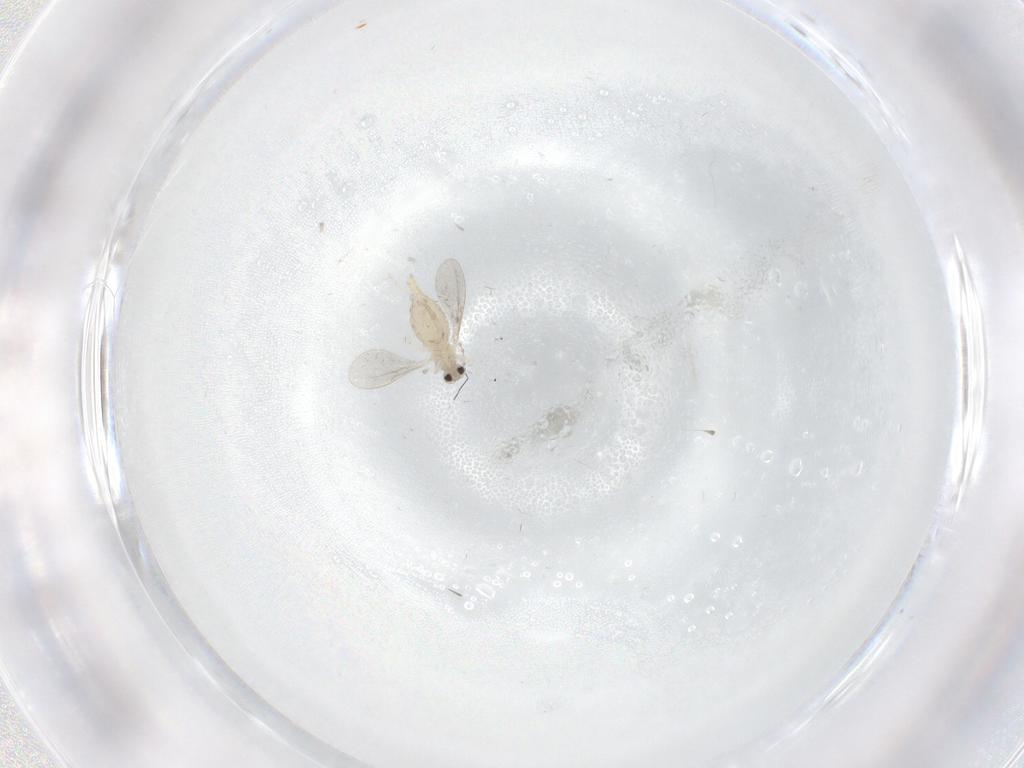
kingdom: Animalia
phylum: Arthropoda
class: Insecta
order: Diptera
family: Cecidomyiidae
